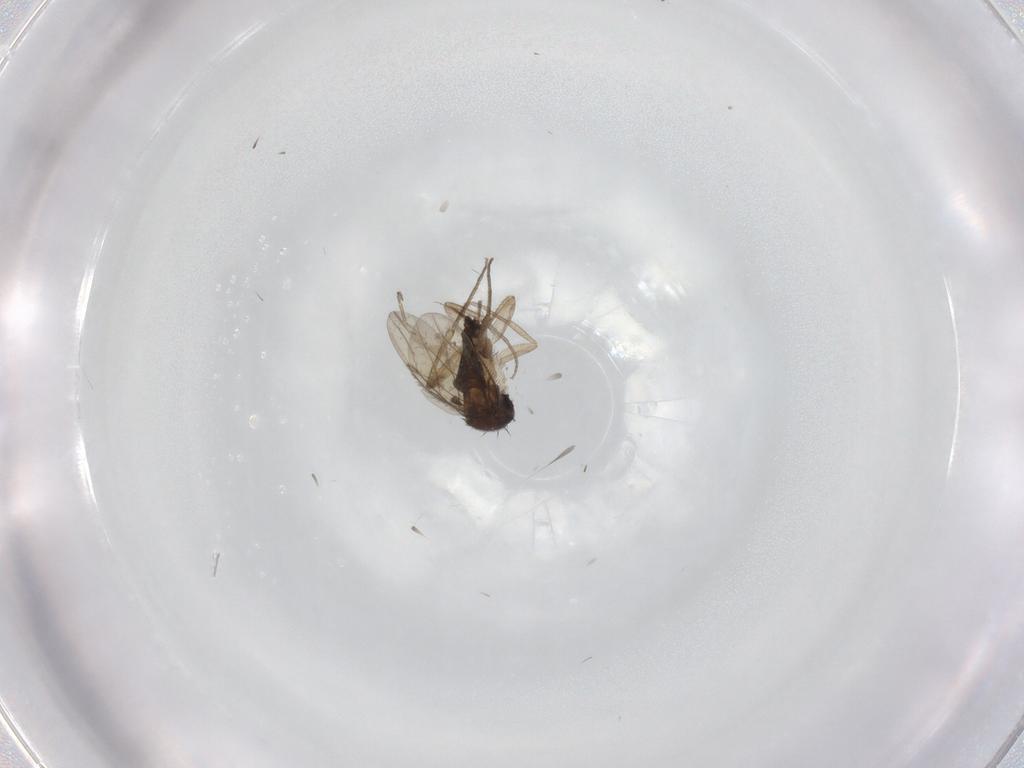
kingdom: Animalia
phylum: Arthropoda
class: Insecta
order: Diptera
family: Phoridae
